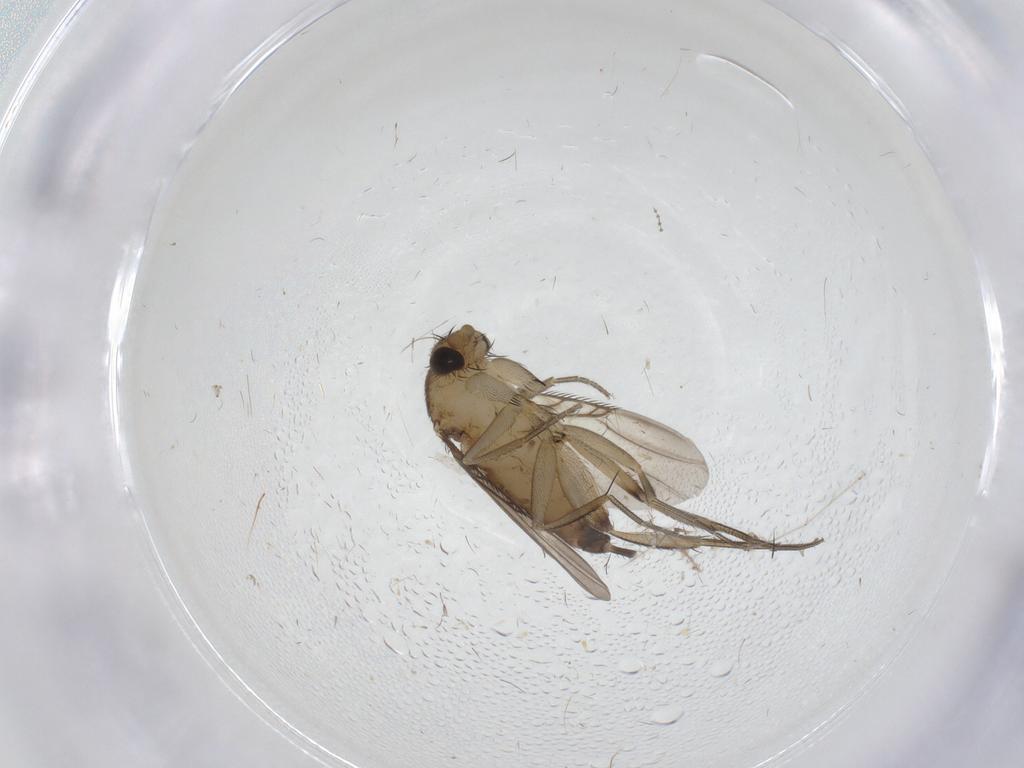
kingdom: Animalia
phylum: Arthropoda
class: Insecta
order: Diptera
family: Phoridae
